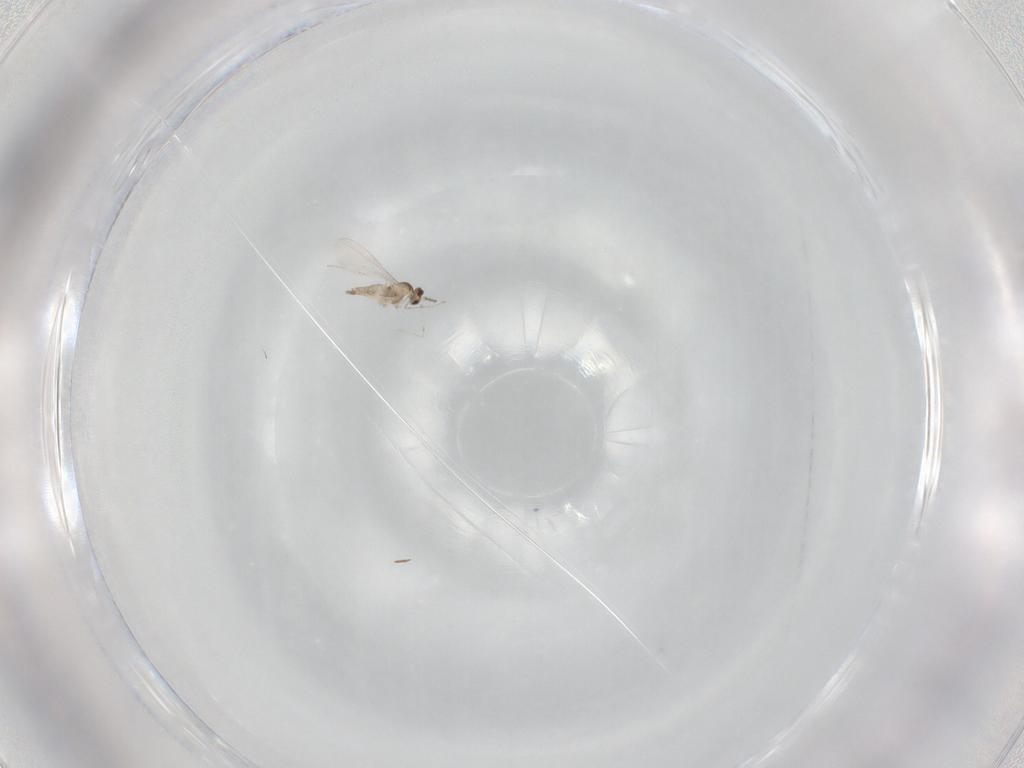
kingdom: Animalia
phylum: Arthropoda
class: Insecta
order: Diptera
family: Cecidomyiidae
